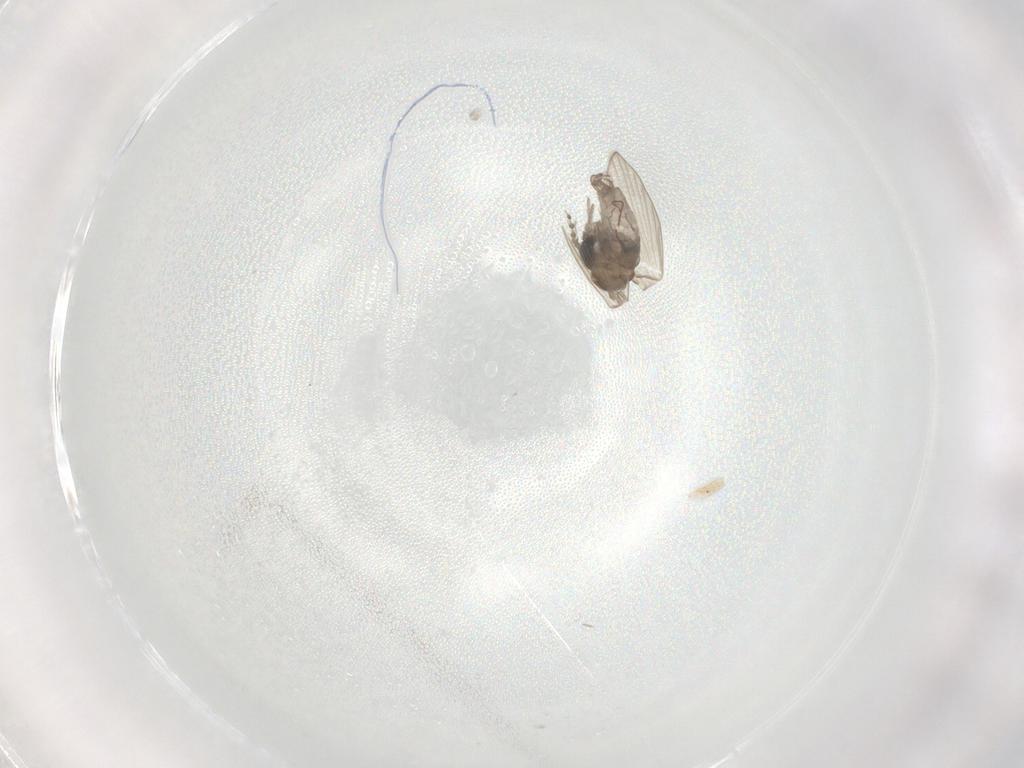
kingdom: Animalia
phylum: Arthropoda
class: Insecta
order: Diptera
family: Psychodidae
